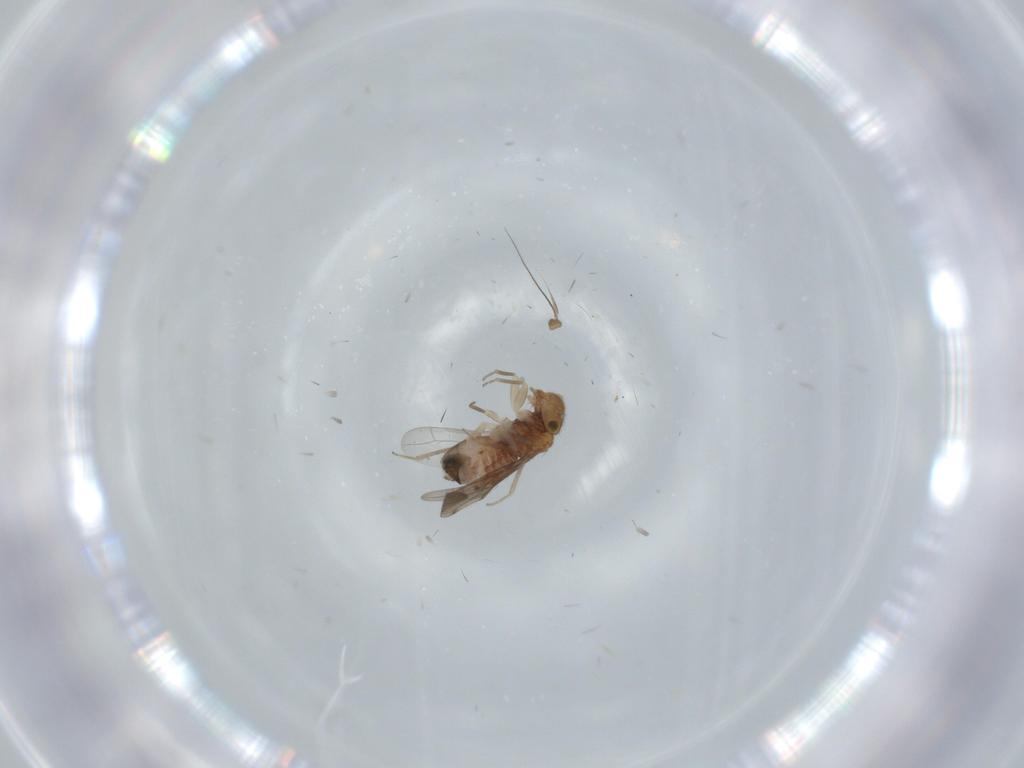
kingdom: Animalia
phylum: Arthropoda
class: Insecta
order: Psocodea
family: Ectopsocidae
